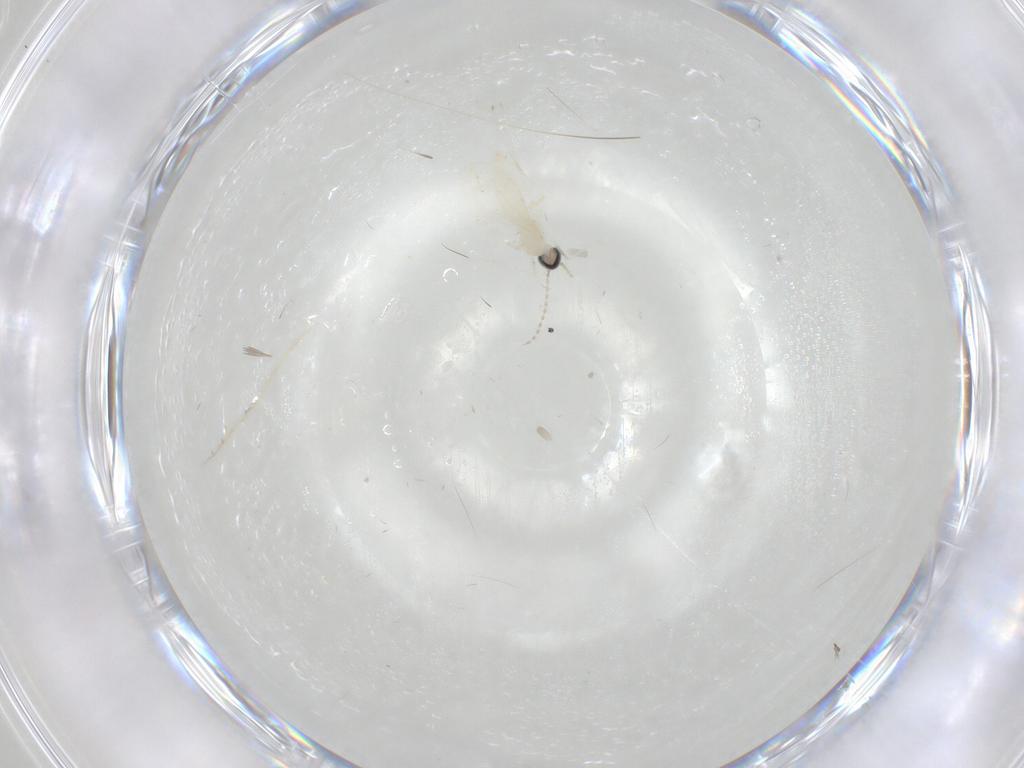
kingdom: Animalia
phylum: Arthropoda
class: Insecta
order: Diptera
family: Cecidomyiidae
